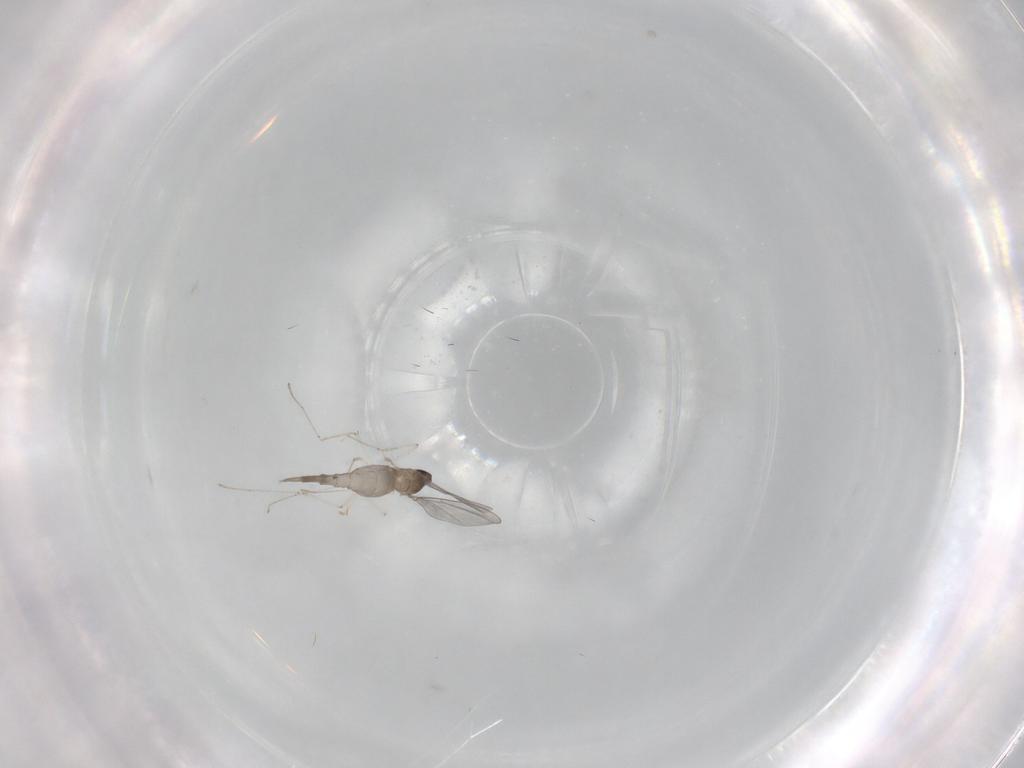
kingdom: Animalia
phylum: Arthropoda
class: Insecta
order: Diptera
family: Cecidomyiidae
